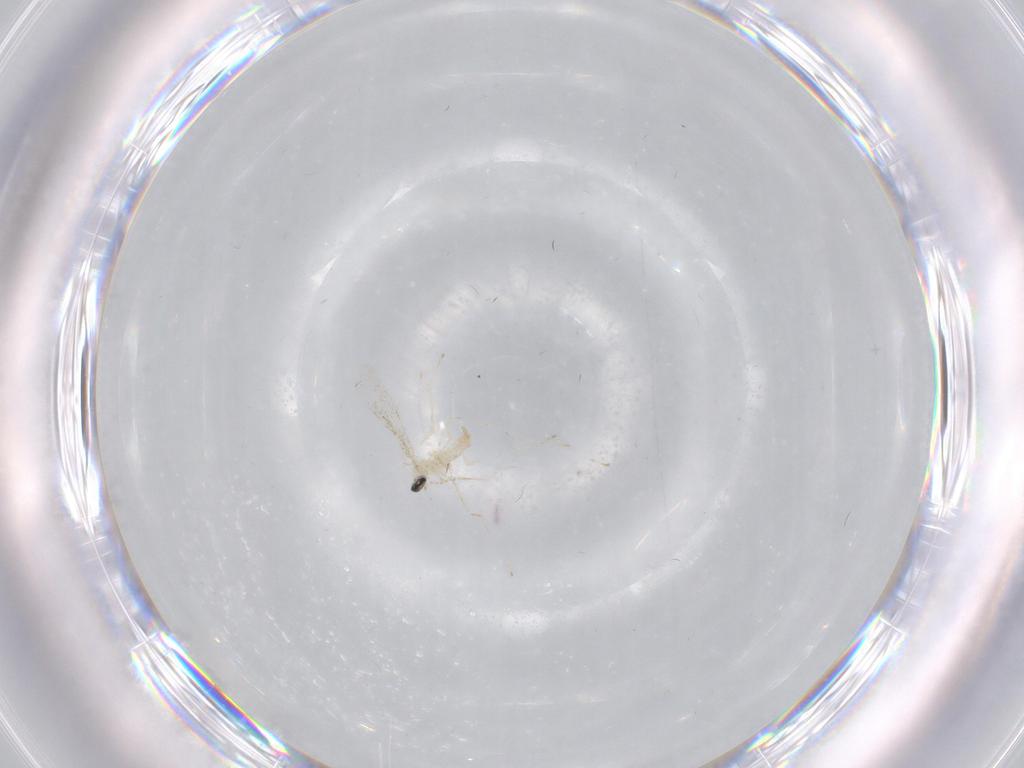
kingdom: Animalia
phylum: Arthropoda
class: Insecta
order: Diptera
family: Cecidomyiidae
